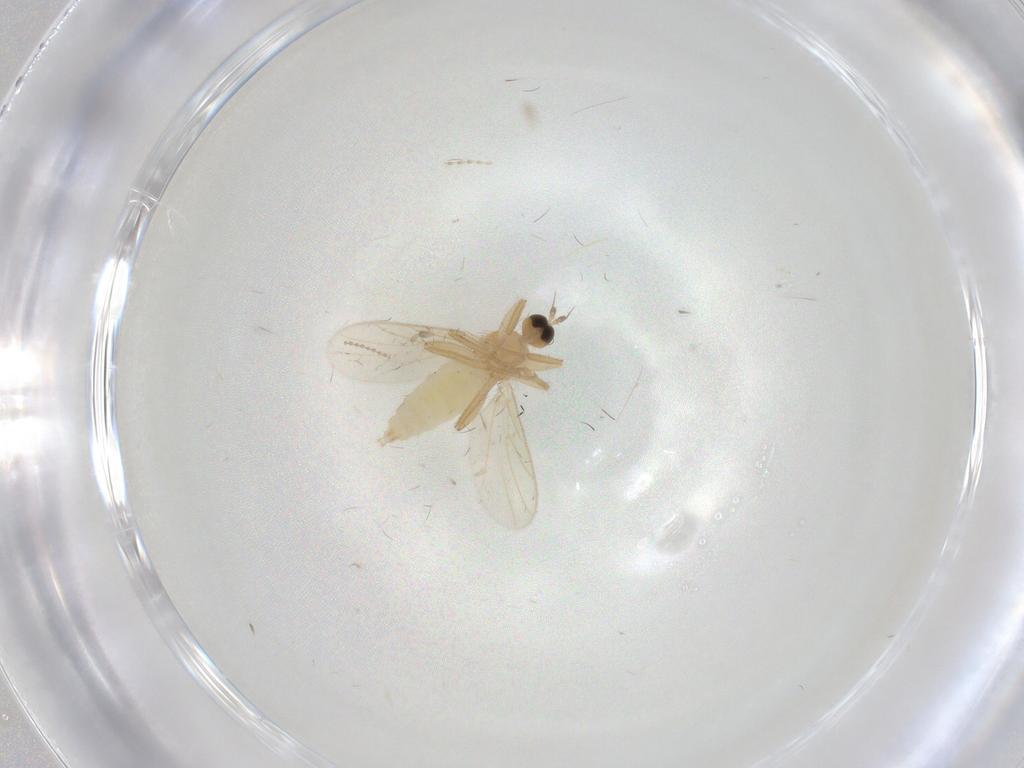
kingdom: Animalia
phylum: Arthropoda
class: Insecta
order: Diptera
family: Hybotidae
